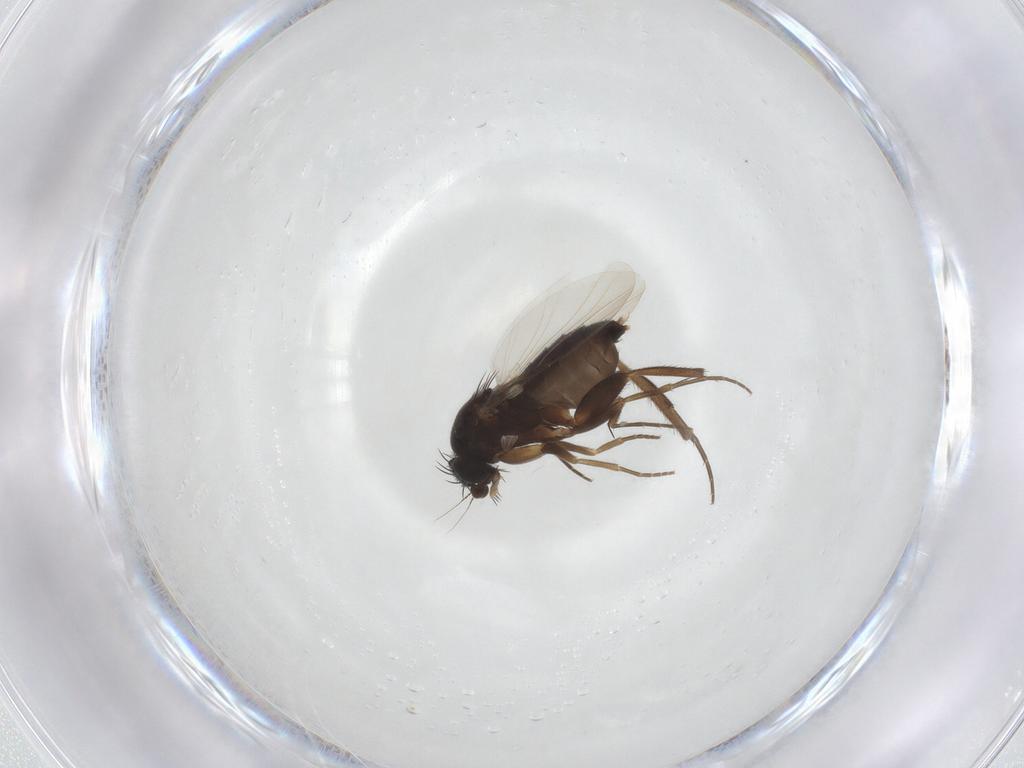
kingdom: Animalia
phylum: Arthropoda
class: Insecta
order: Diptera
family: Phoridae
